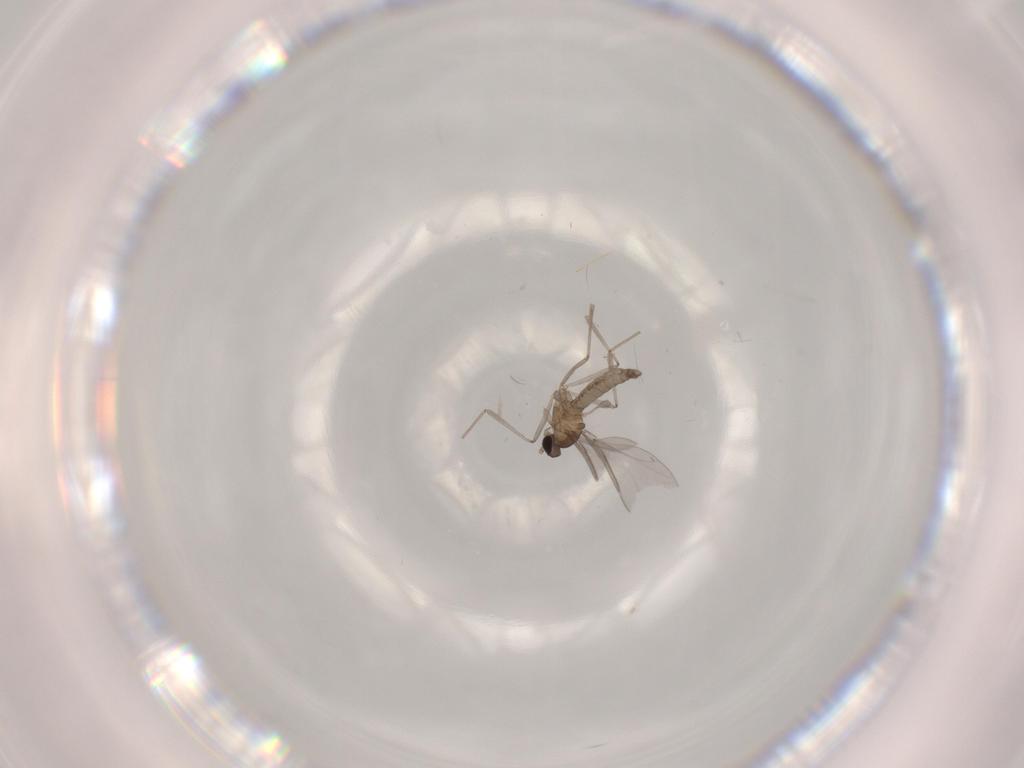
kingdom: Animalia
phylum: Arthropoda
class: Insecta
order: Diptera
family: Cecidomyiidae
